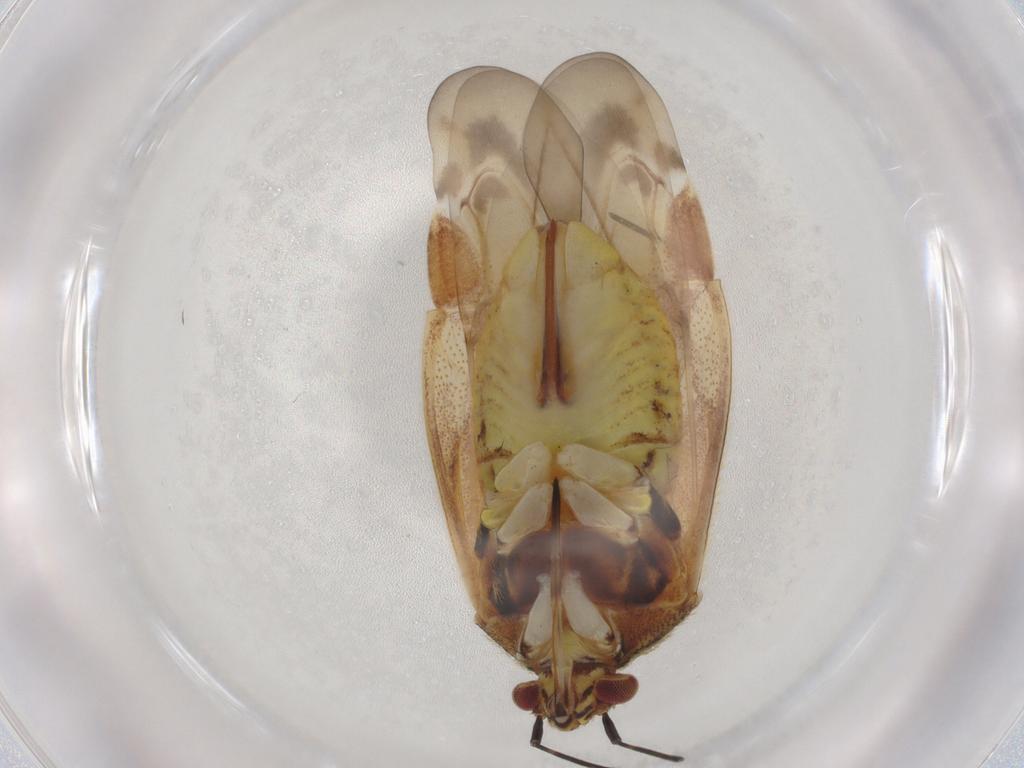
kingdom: Animalia
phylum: Arthropoda
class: Insecta
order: Hemiptera
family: Miridae
